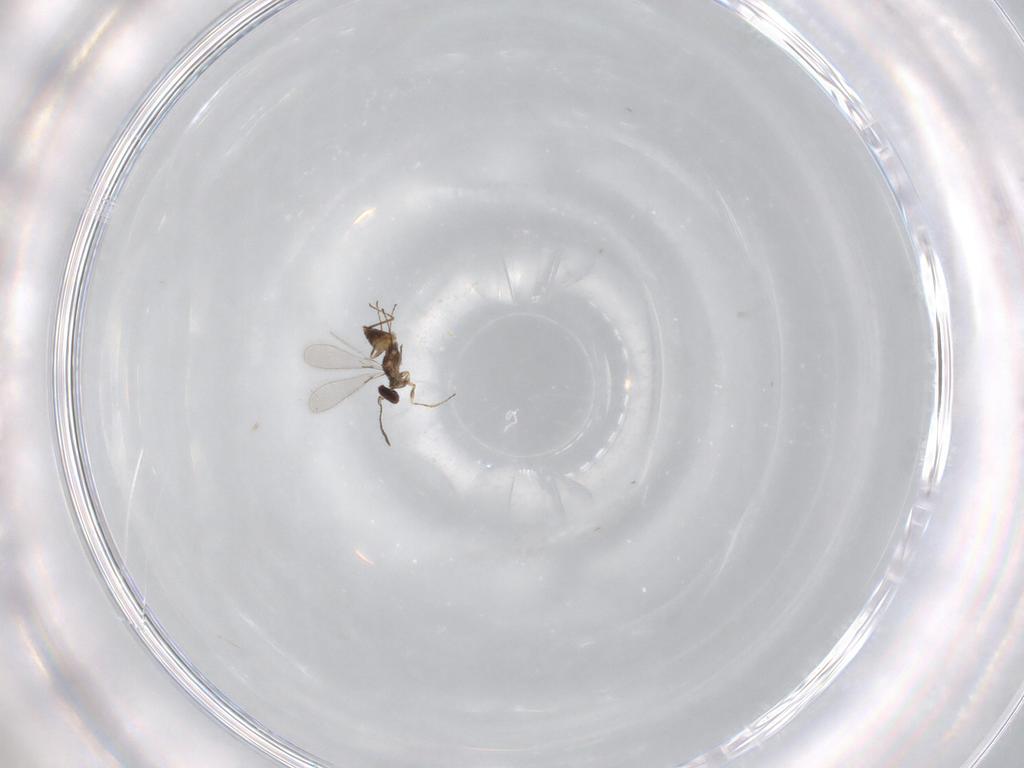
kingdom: Animalia
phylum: Arthropoda
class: Insecta
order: Hymenoptera
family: Mymaridae
